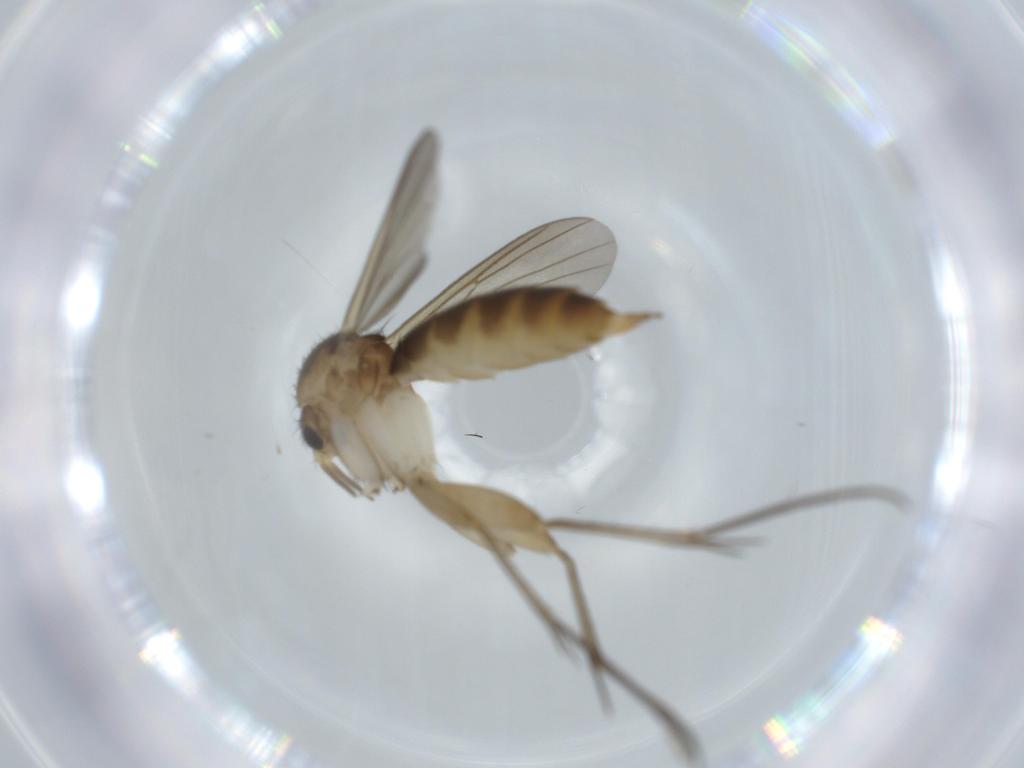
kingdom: Animalia
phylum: Arthropoda
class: Insecta
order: Diptera
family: Mycetophilidae
